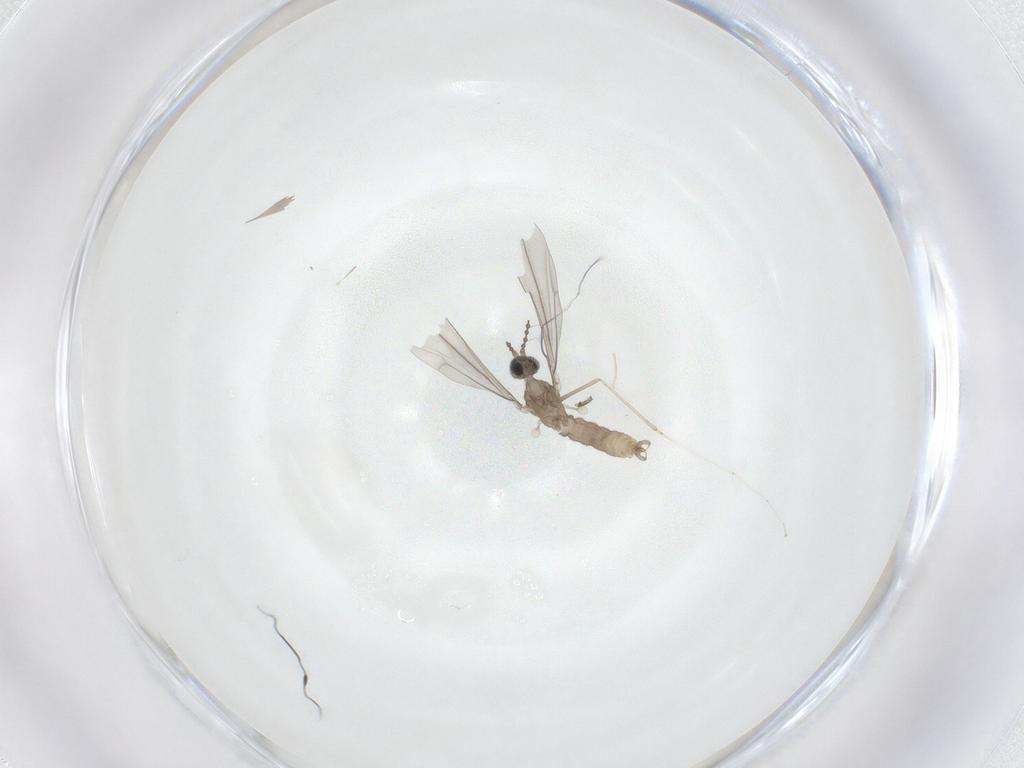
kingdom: Animalia
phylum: Arthropoda
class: Insecta
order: Diptera
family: Cecidomyiidae
